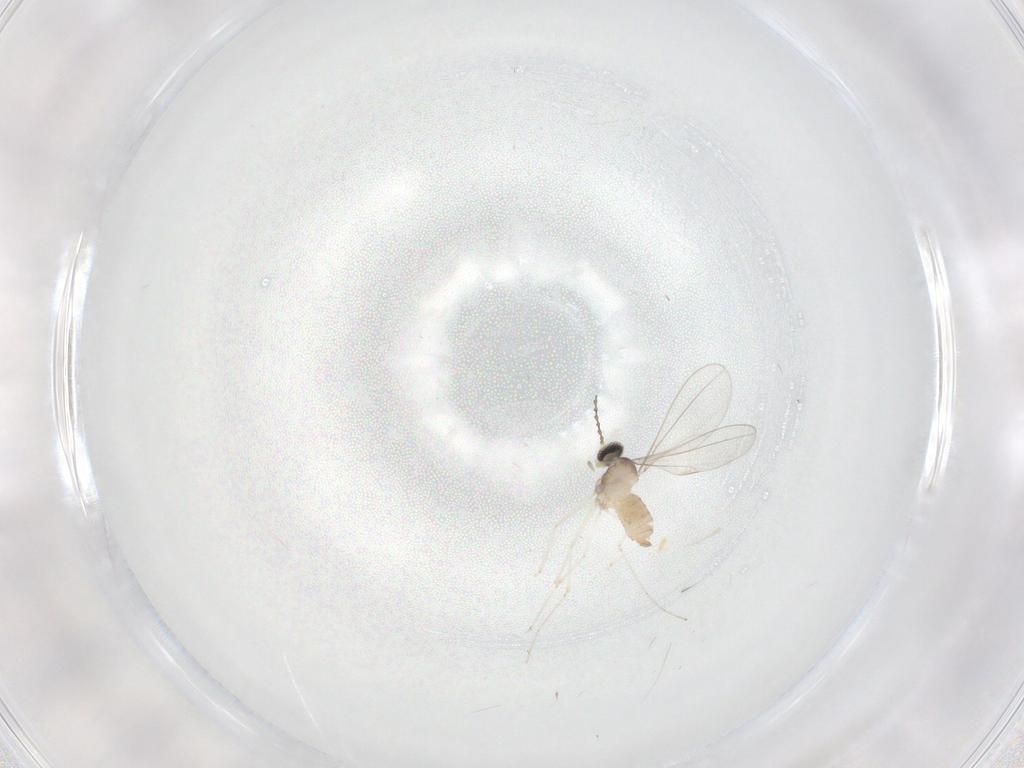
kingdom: Animalia
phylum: Arthropoda
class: Insecta
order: Diptera
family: Cecidomyiidae
